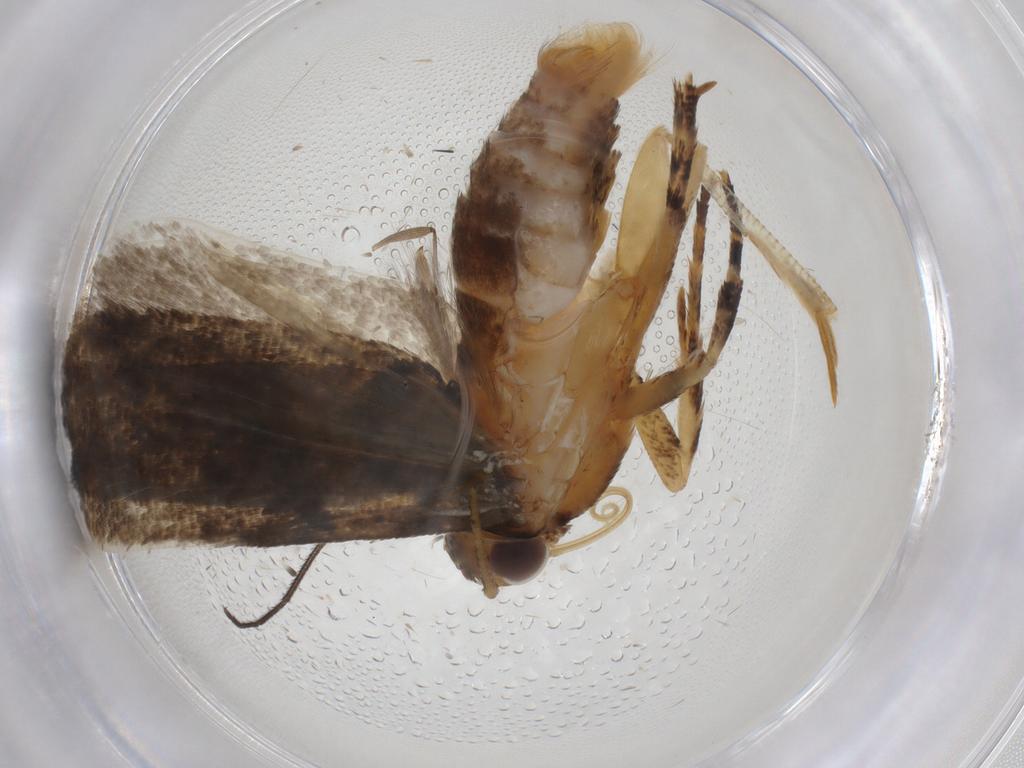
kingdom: Animalia
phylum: Arthropoda
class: Insecta
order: Lepidoptera
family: Gelechiidae
